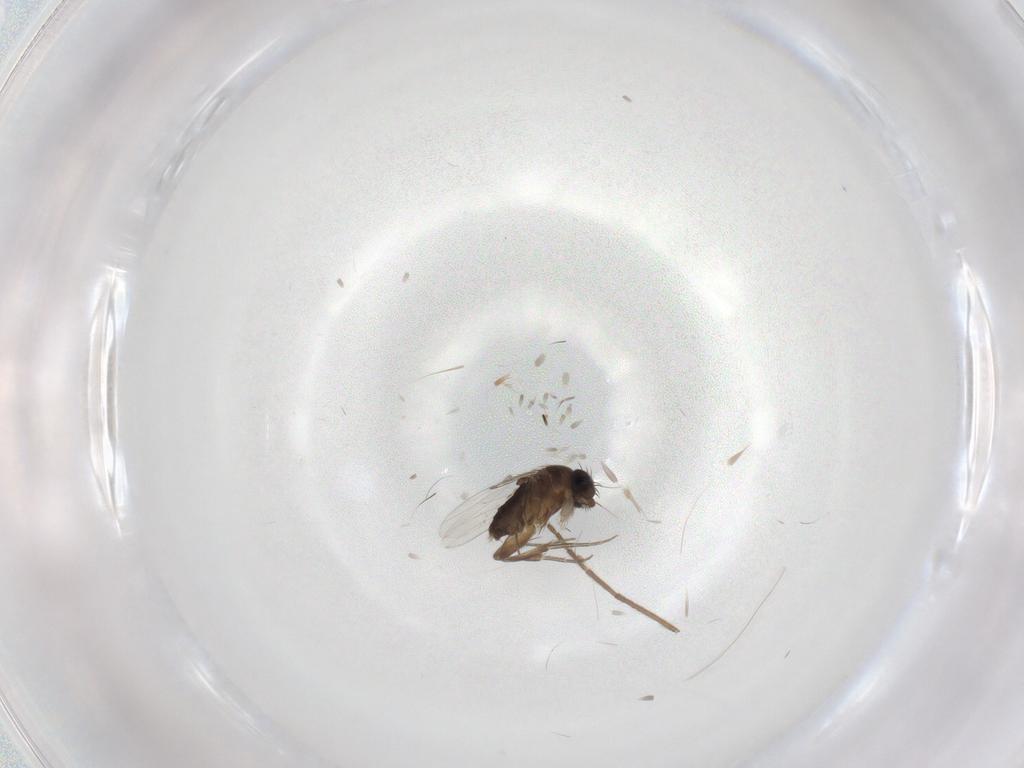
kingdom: Animalia
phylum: Arthropoda
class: Insecta
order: Diptera
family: Phoridae
